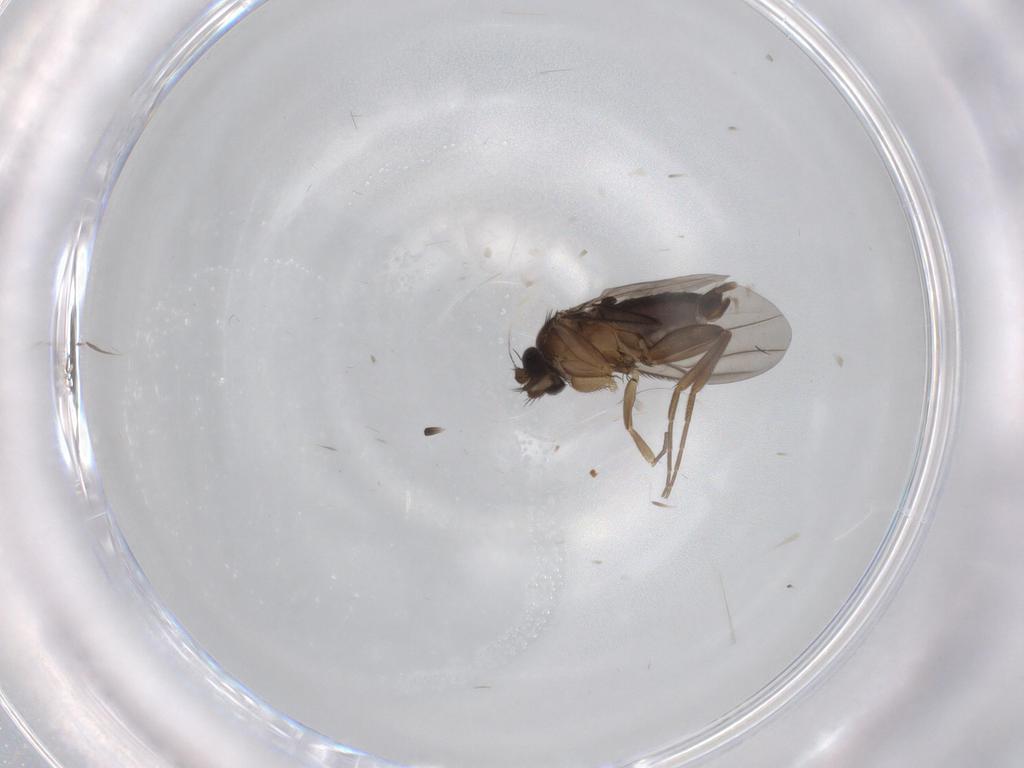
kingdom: Animalia
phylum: Arthropoda
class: Insecta
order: Diptera
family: Phoridae
